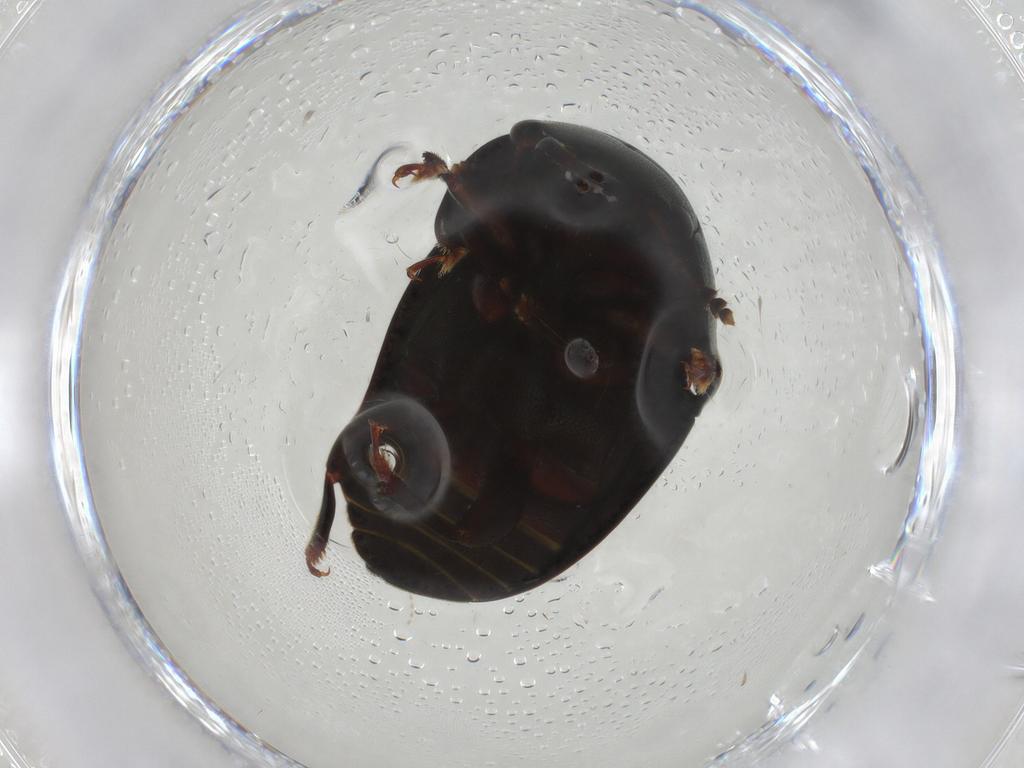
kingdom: Animalia
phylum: Arthropoda
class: Insecta
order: Coleoptera
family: Nitidulidae
